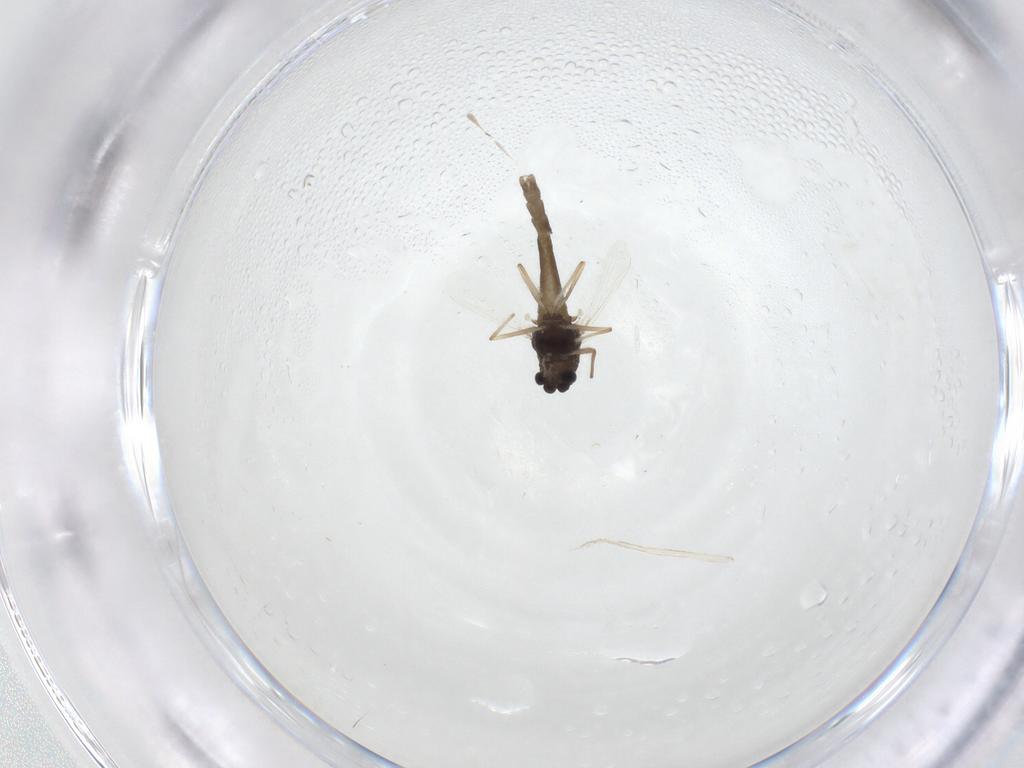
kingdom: Animalia
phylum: Arthropoda
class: Insecta
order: Diptera
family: Chironomidae
